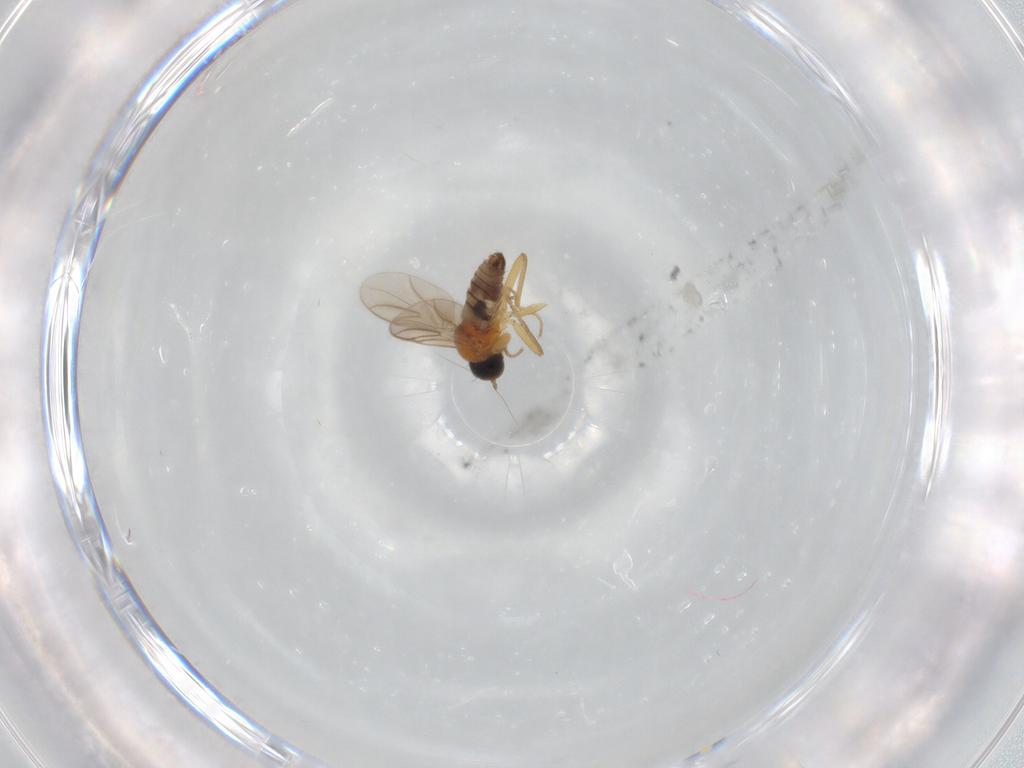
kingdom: Animalia
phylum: Arthropoda
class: Insecta
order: Diptera
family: Hybotidae
